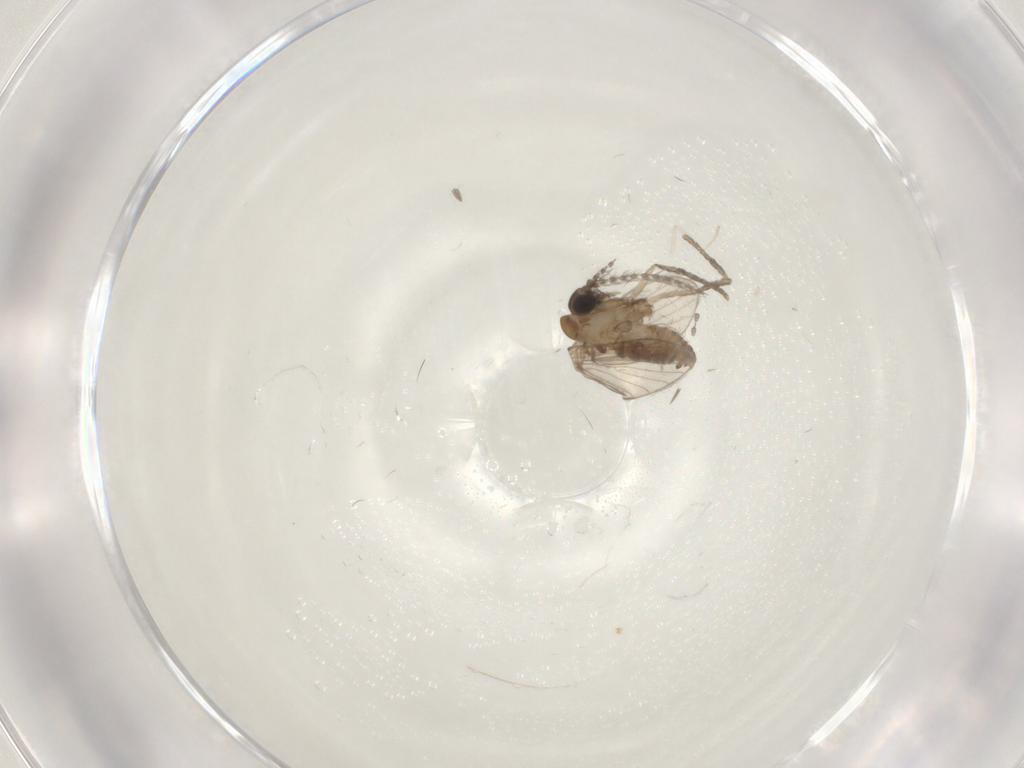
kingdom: Animalia
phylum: Arthropoda
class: Insecta
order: Diptera
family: Cecidomyiidae
